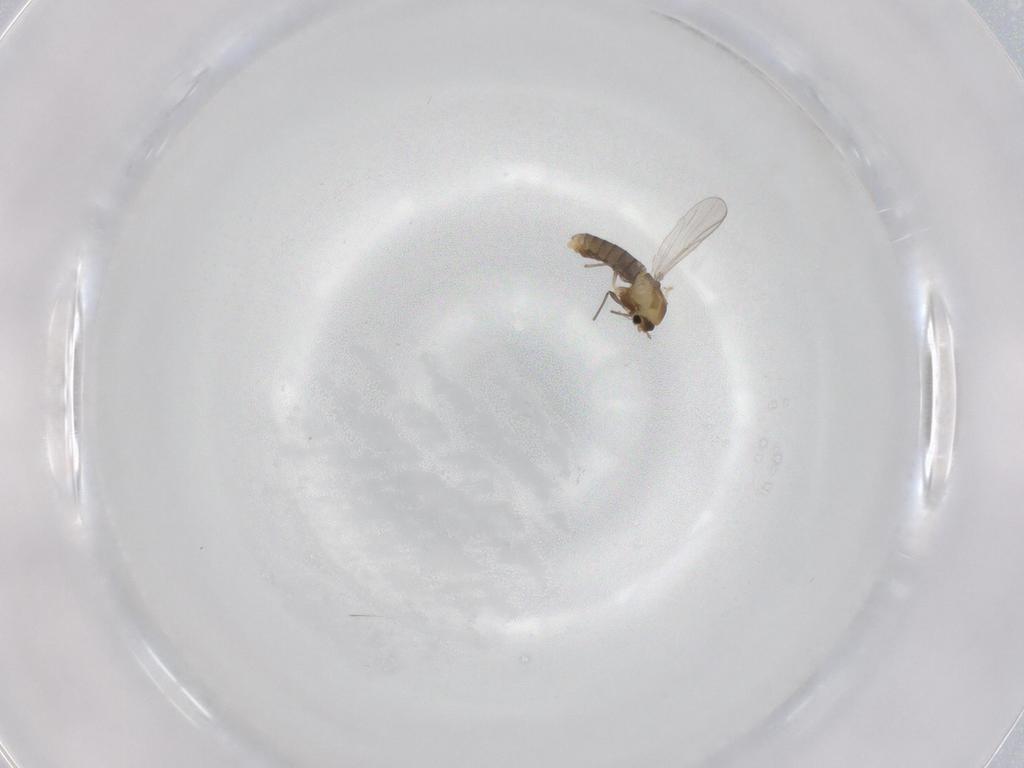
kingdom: Animalia
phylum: Arthropoda
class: Insecta
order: Diptera
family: Chironomidae
